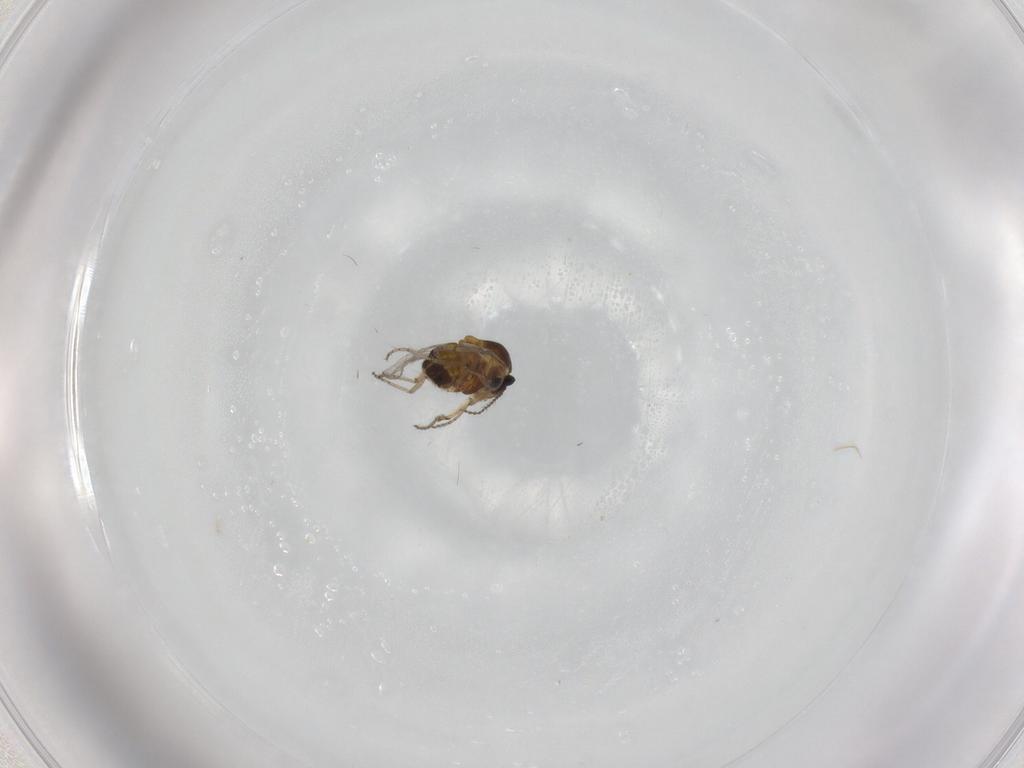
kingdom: Animalia
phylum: Arthropoda
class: Insecta
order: Diptera
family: Ceratopogonidae
